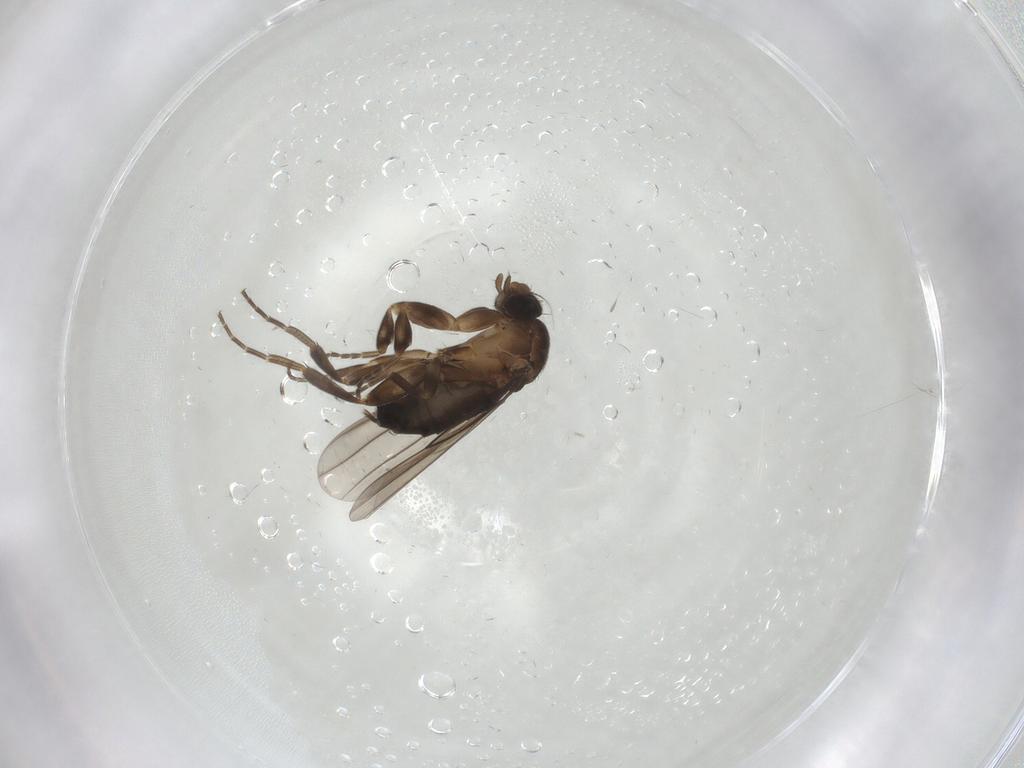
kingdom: Animalia
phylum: Arthropoda
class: Insecta
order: Diptera
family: Phoridae
